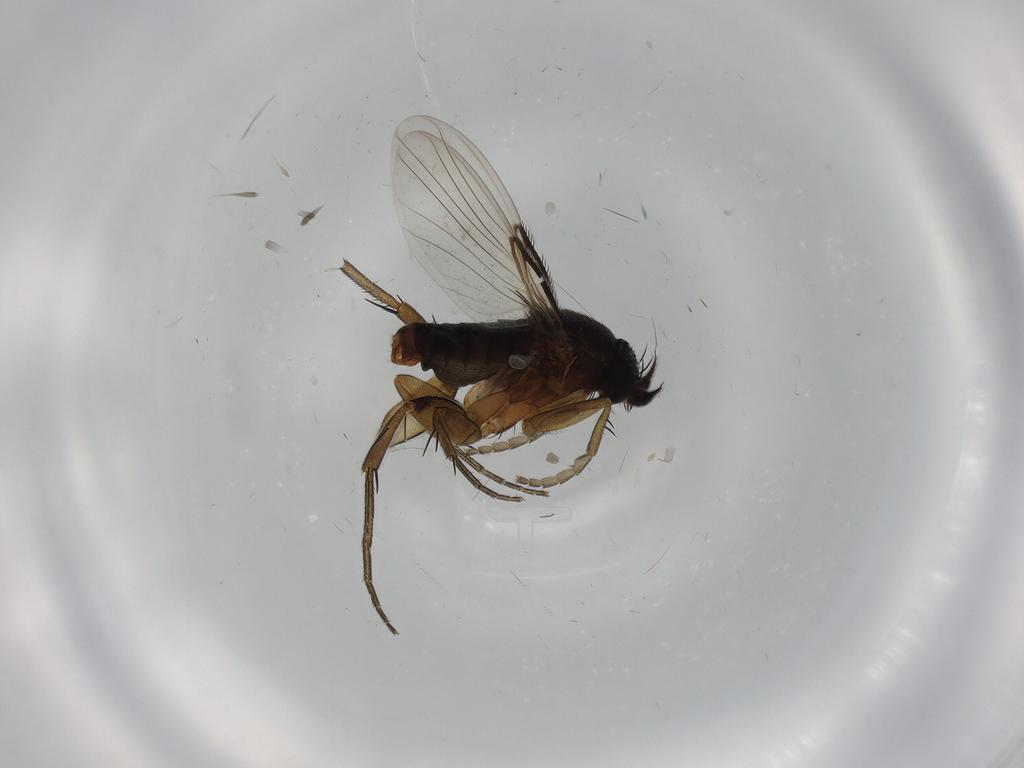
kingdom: Animalia
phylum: Arthropoda
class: Insecta
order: Diptera
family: Phoridae
